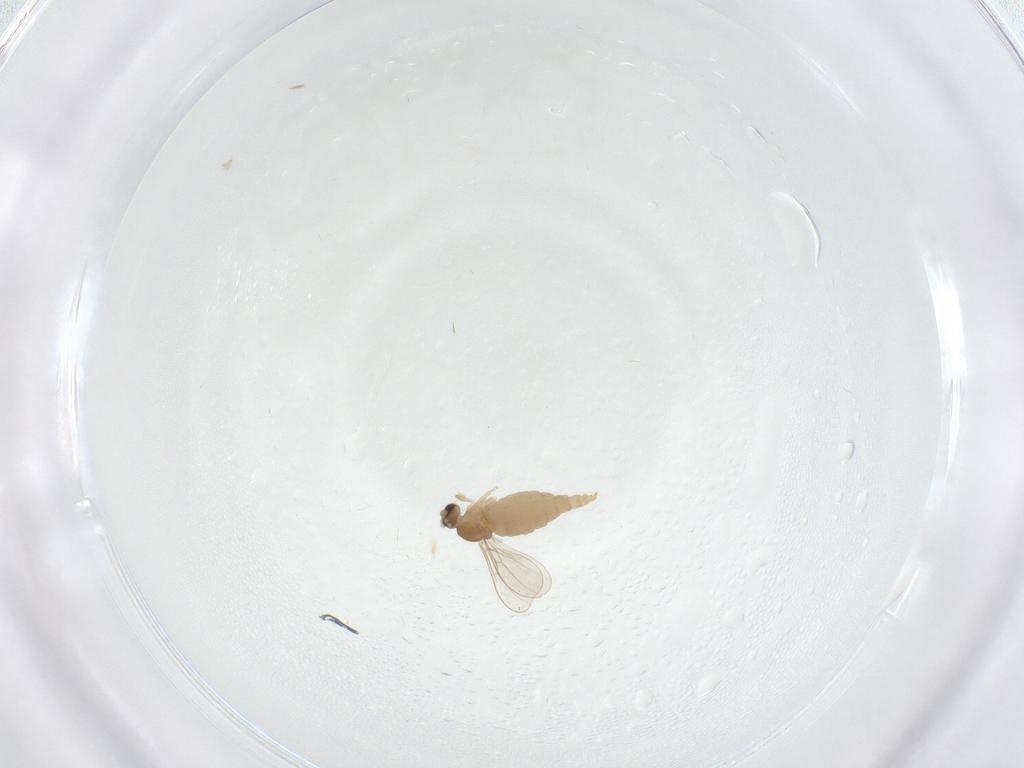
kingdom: Animalia
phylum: Arthropoda
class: Insecta
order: Diptera
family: Cecidomyiidae
